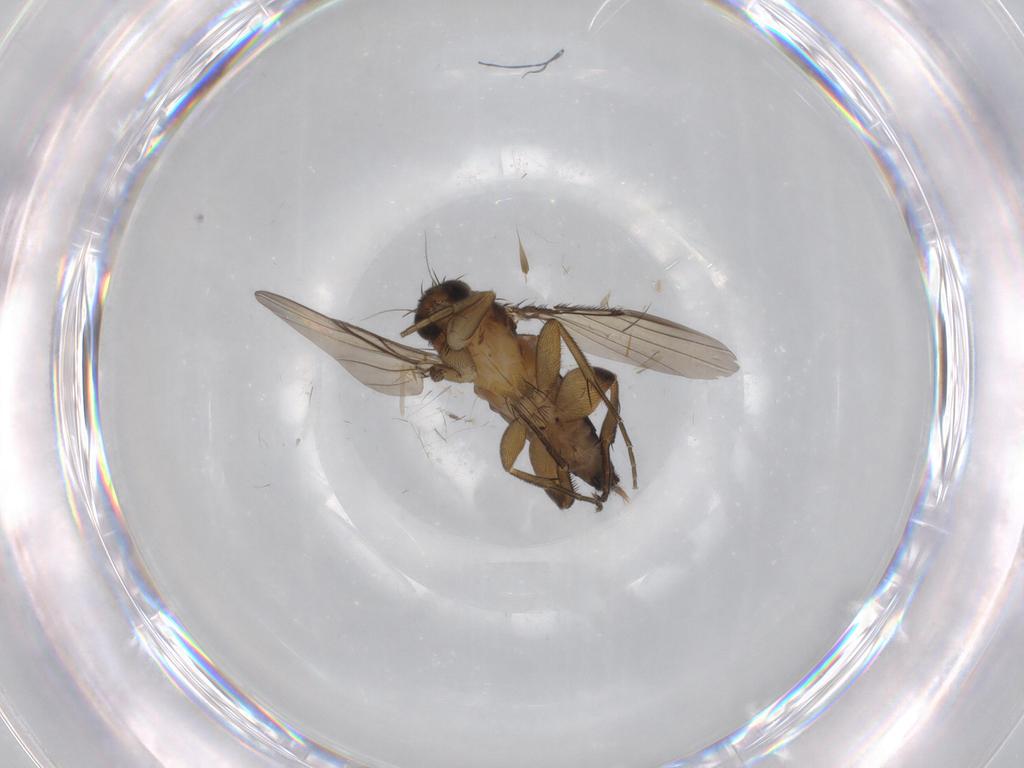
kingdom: Animalia
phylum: Arthropoda
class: Insecta
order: Diptera
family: Phoridae
